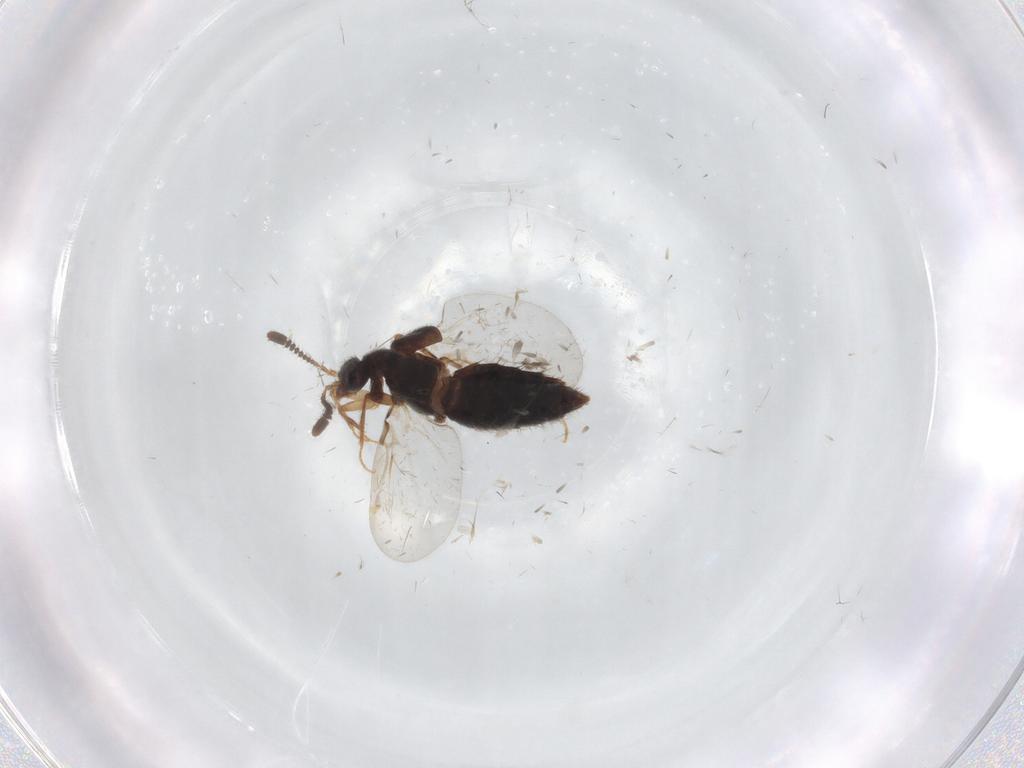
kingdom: Animalia
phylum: Arthropoda
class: Insecta
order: Coleoptera
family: Staphylinidae
